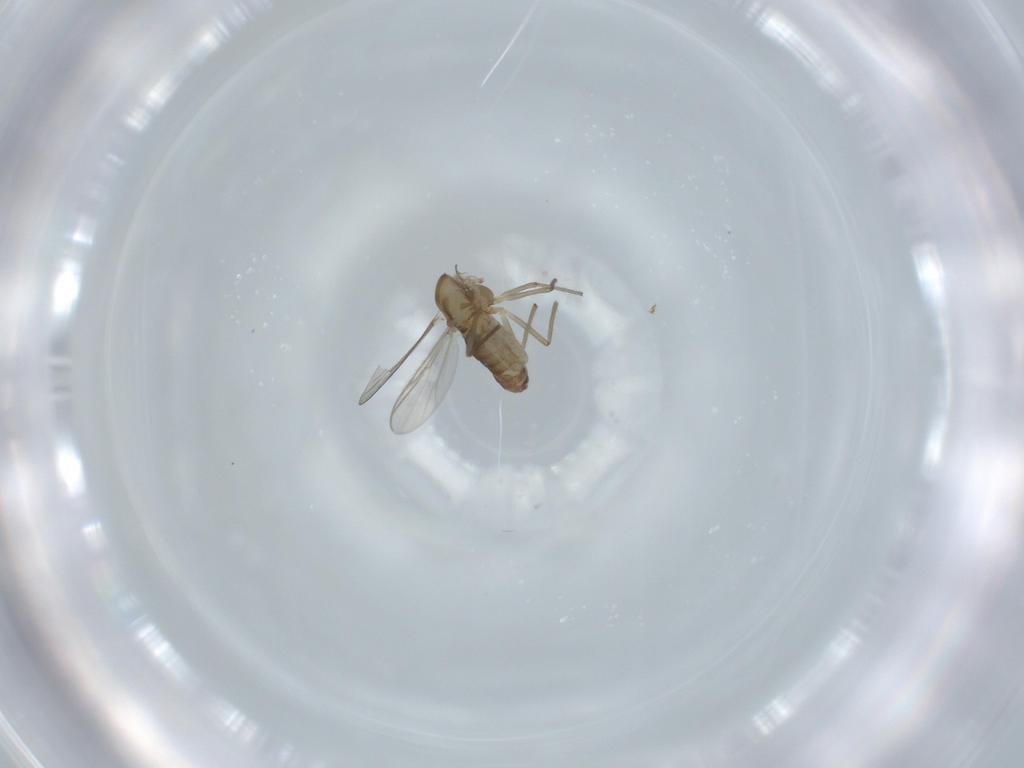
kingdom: Animalia
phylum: Arthropoda
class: Insecta
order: Diptera
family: Chironomidae
